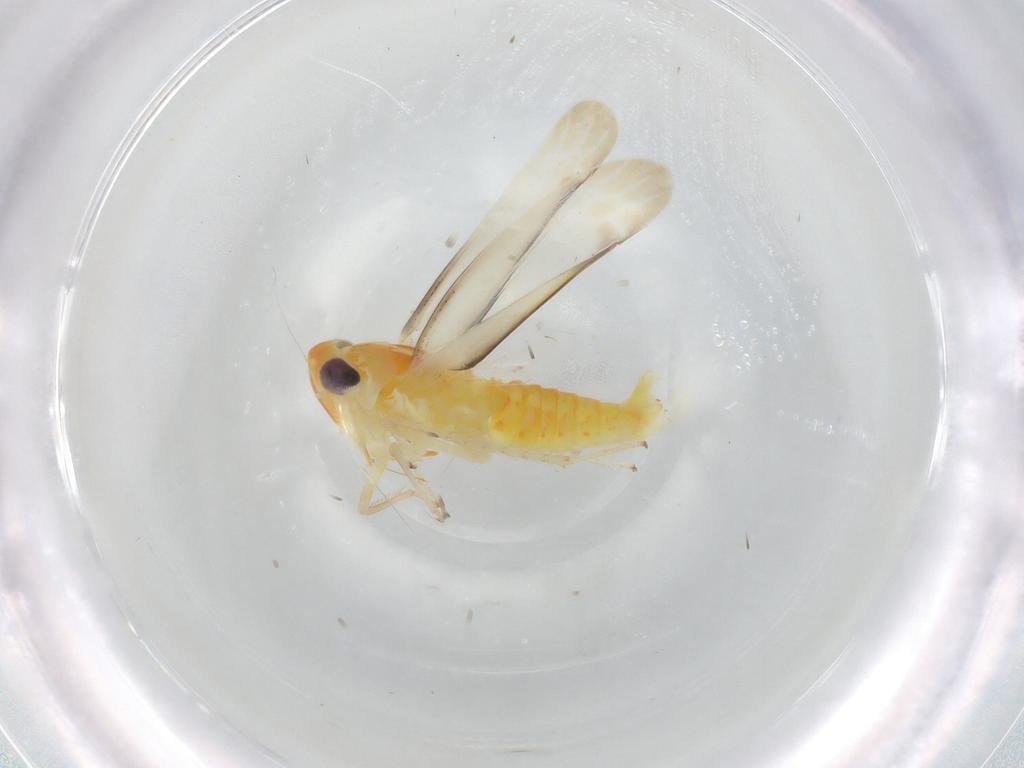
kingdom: Animalia
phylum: Arthropoda
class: Insecta
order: Hemiptera
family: Cicadellidae
